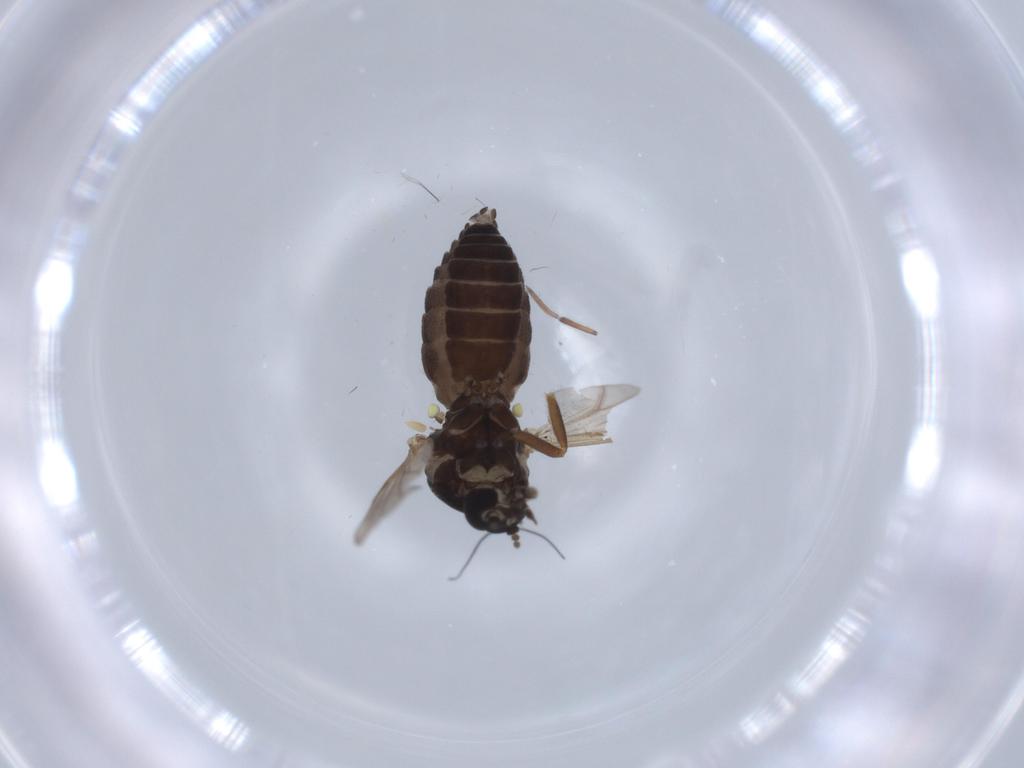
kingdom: Animalia
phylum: Arthropoda
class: Insecta
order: Diptera
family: Ceratopogonidae
